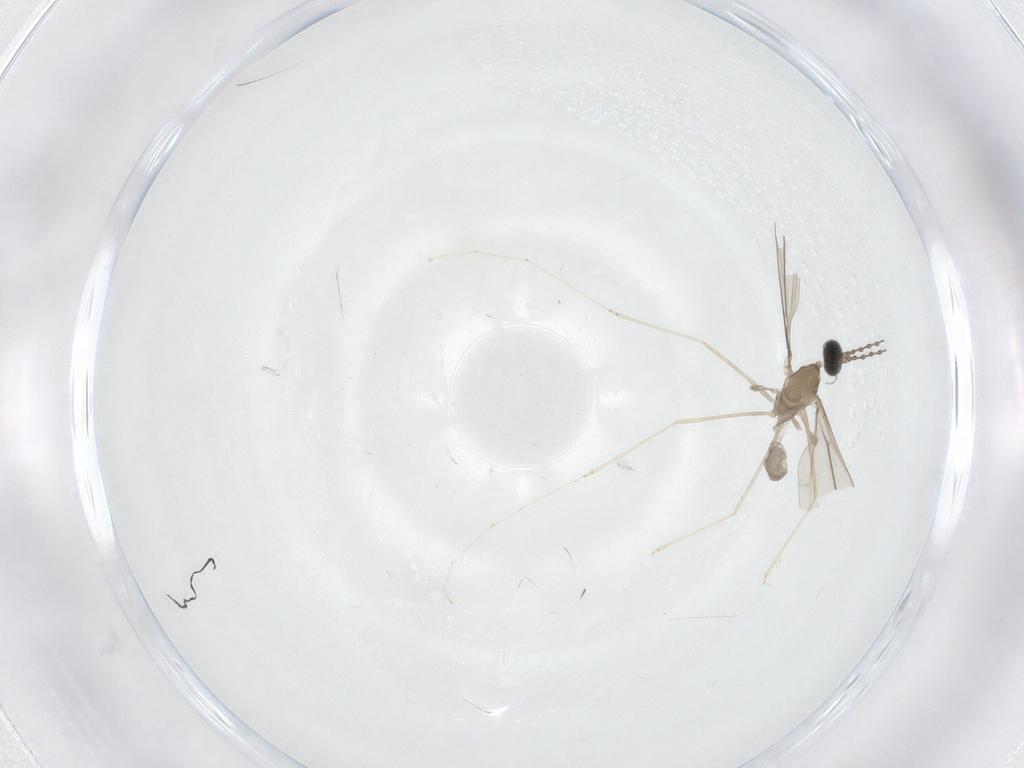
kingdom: Animalia
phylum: Arthropoda
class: Insecta
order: Diptera
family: Cecidomyiidae
